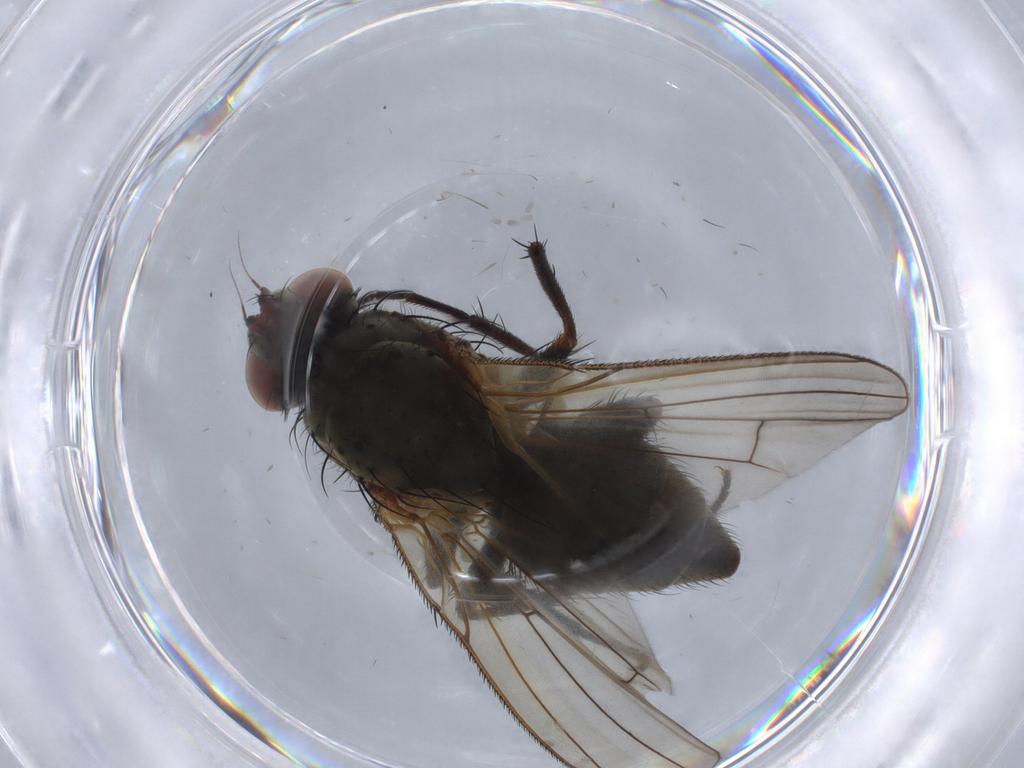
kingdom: Animalia
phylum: Arthropoda
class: Insecta
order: Diptera
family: Anthomyiidae
